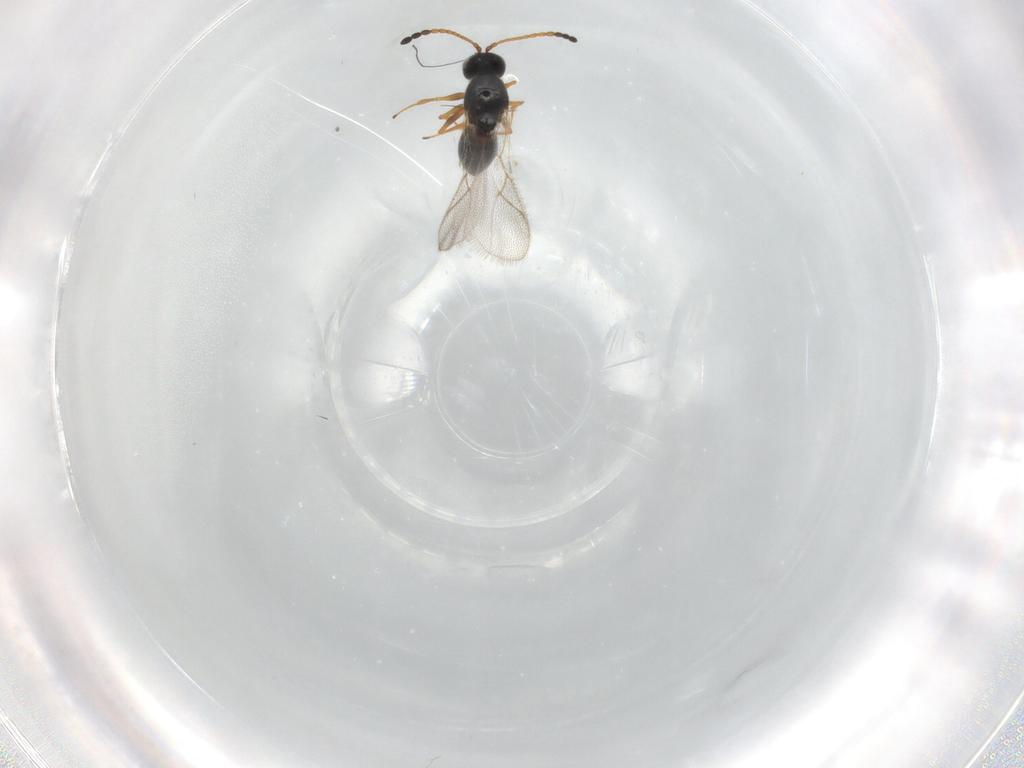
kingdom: Animalia
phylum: Arthropoda
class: Insecta
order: Hymenoptera
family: Figitidae
